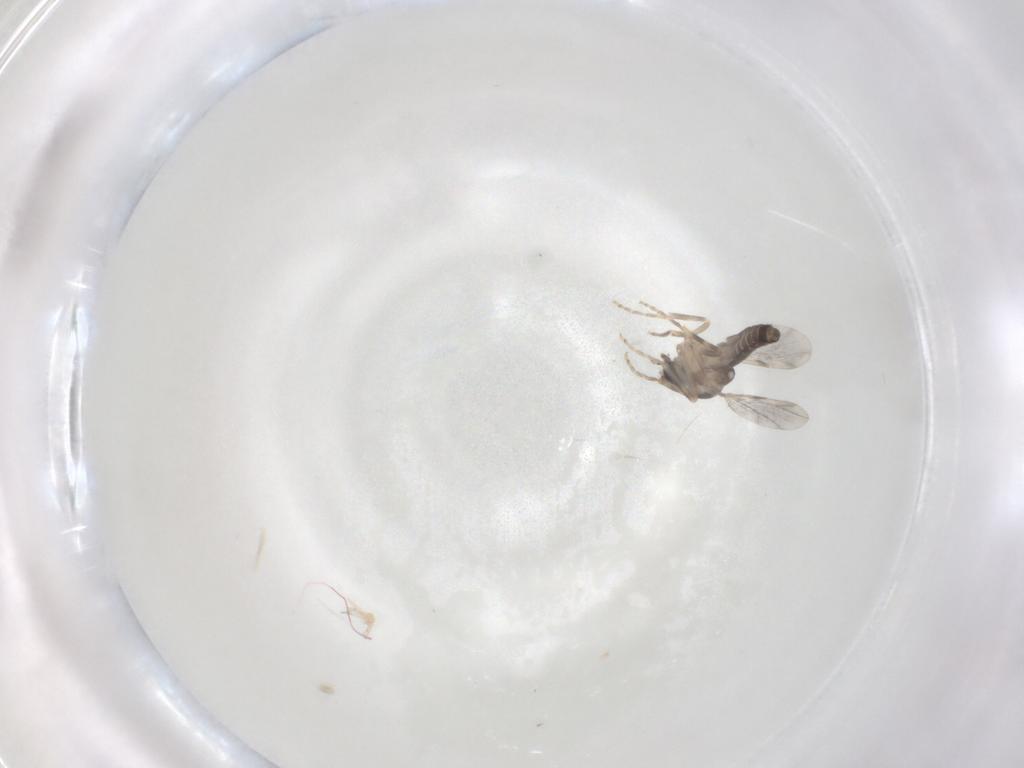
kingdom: Animalia
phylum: Arthropoda
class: Insecta
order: Diptera
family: Ceratopogonidae
